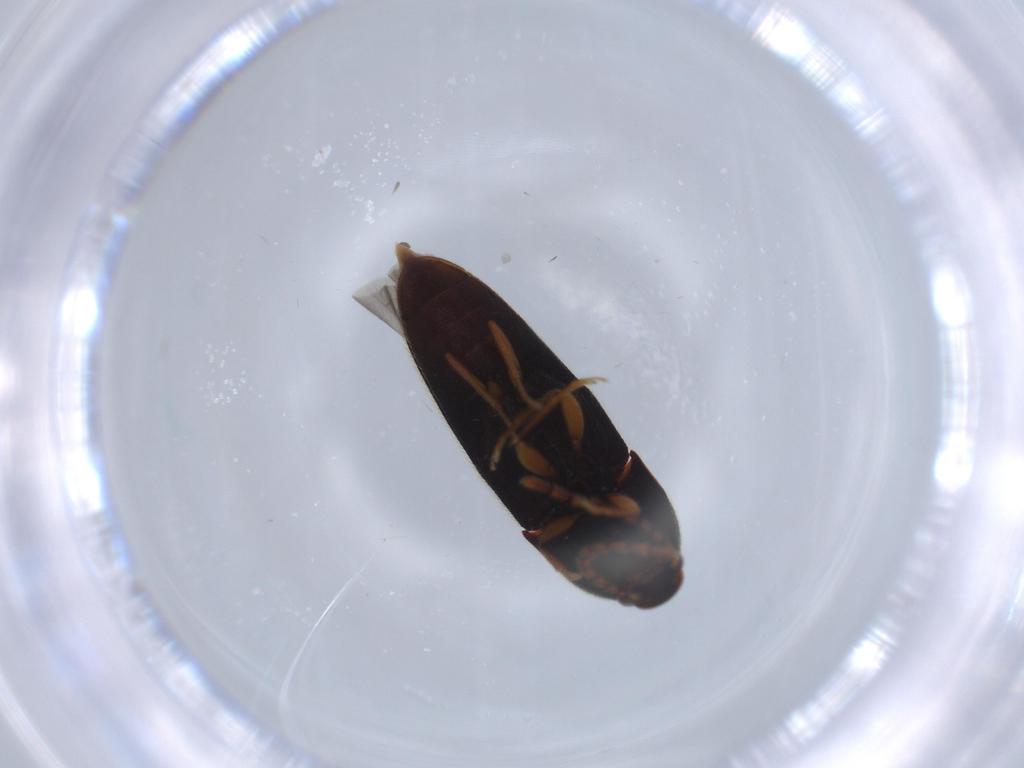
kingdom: Animalia
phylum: Arthropoda
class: Insecta
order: Coleoptera
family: Elateridae
